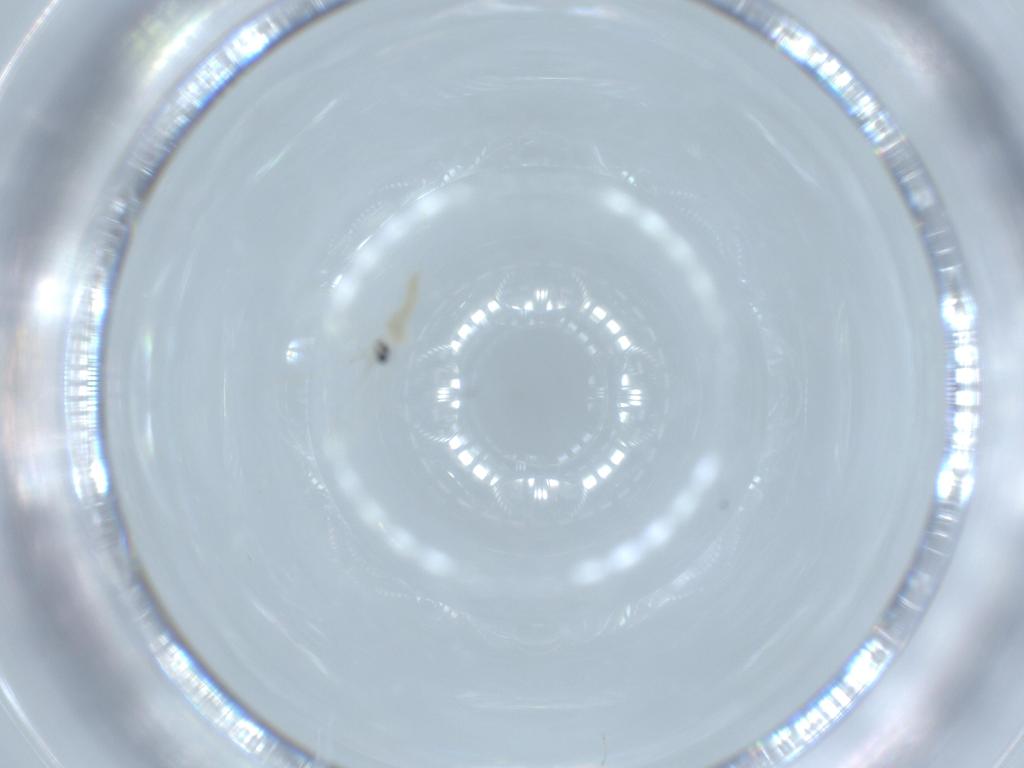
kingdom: Animalia
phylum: Arthropoda
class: Insecta
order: Diptera
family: Cecidomyiidae
